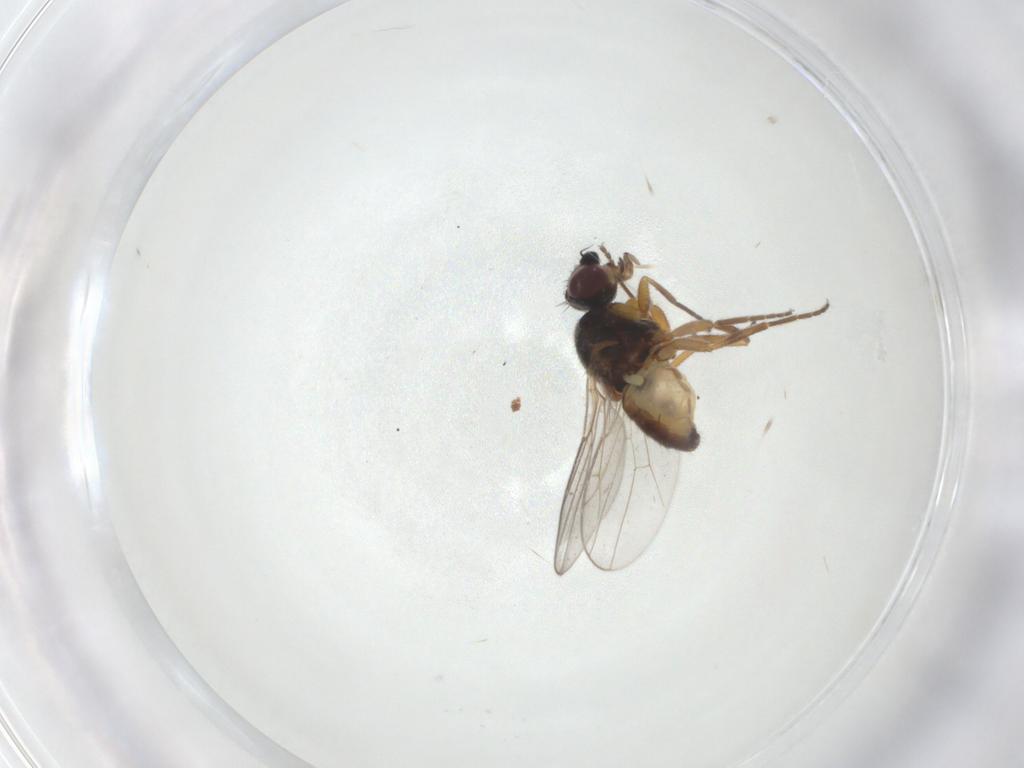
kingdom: Animalia
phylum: Arthropoda
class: Insecta
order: Diptera
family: Chloropidae
